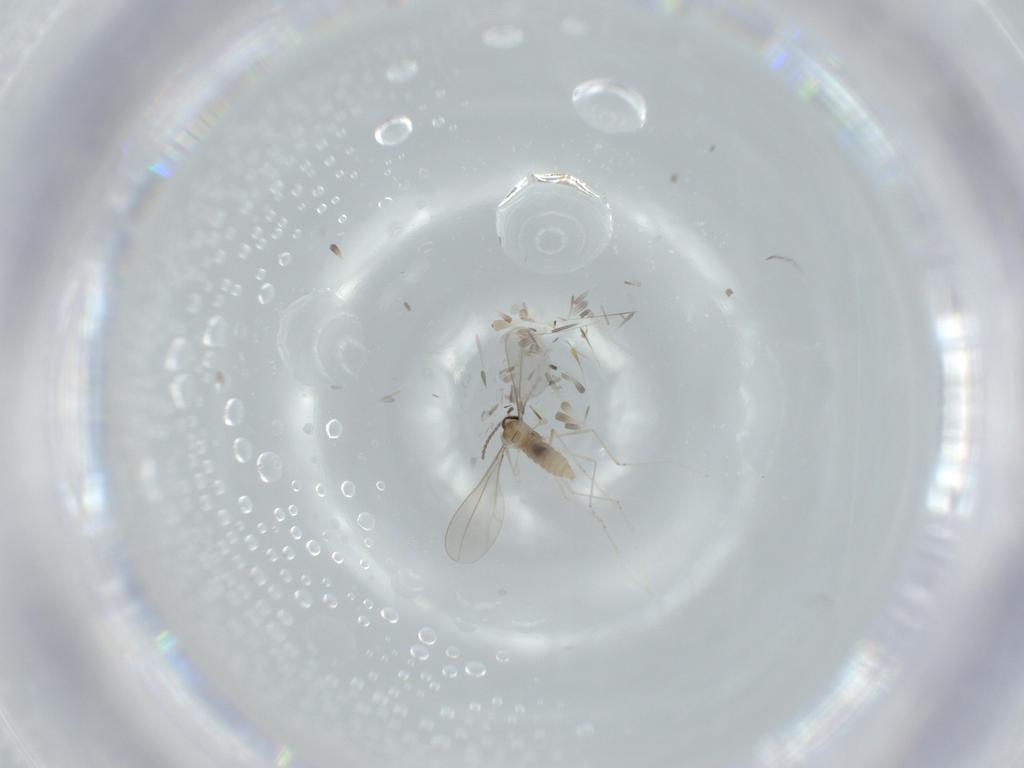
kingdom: Animalia
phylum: Arthropoda
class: Insecta
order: Diptera
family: Cecidomyiidae
